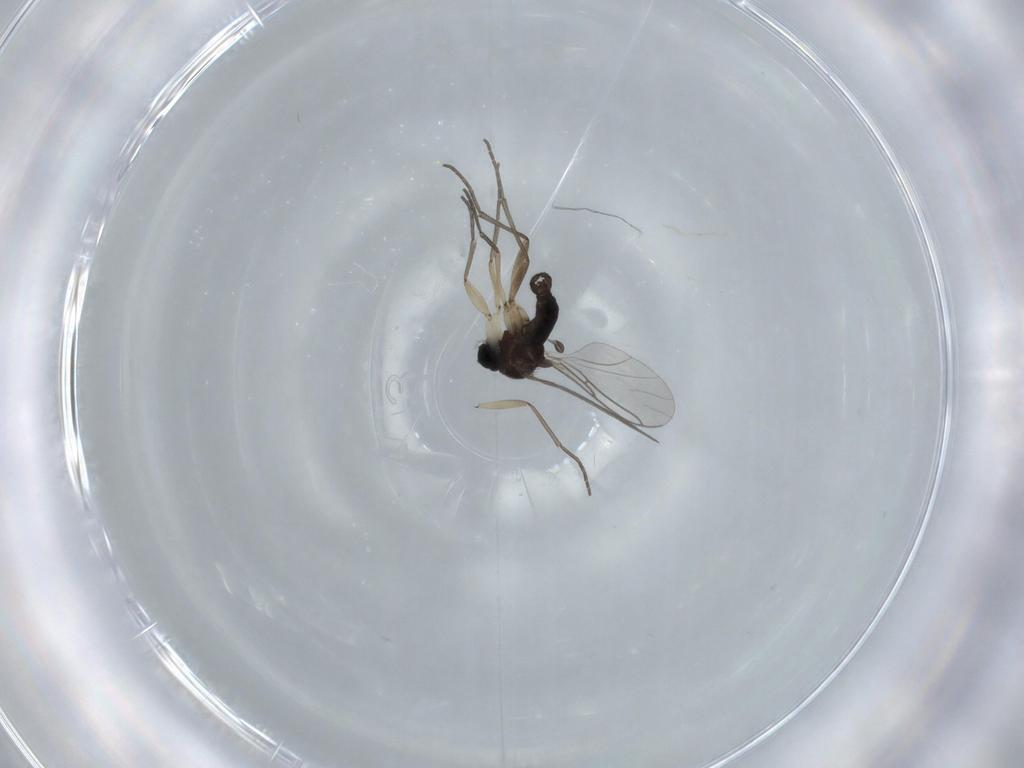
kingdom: Animalia
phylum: Arthropoda
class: Insecta
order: Diptera
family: Sciaridae
